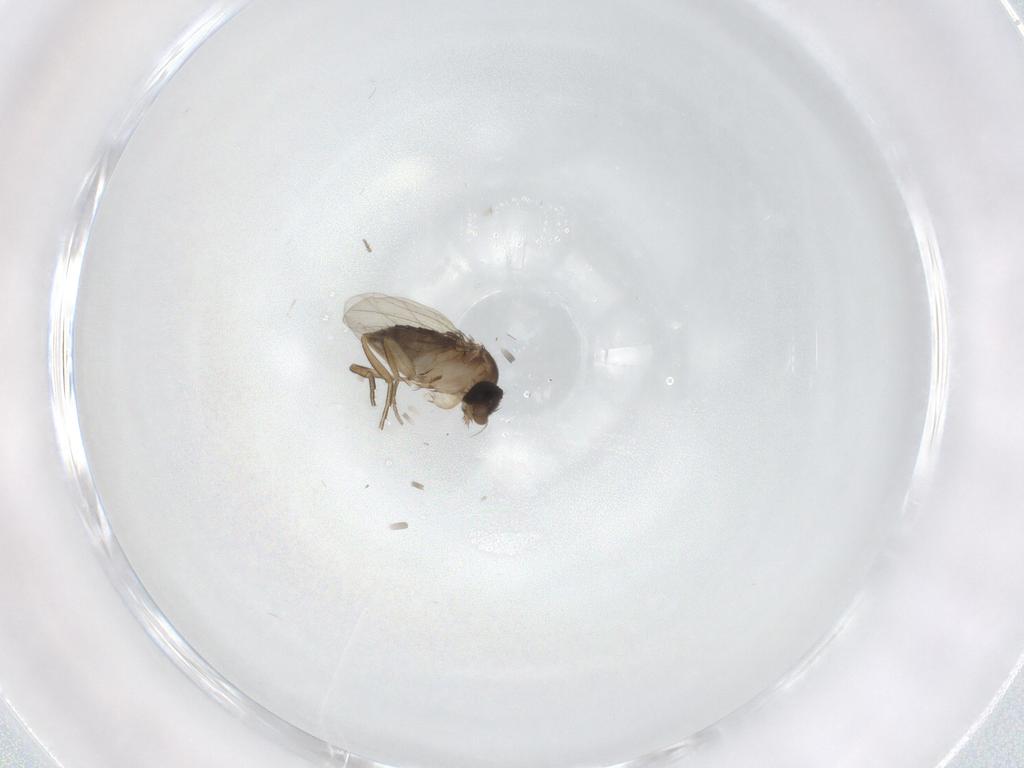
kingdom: Animalia
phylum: Arthropoda
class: Insecta
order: Diptera
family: Phoridae
